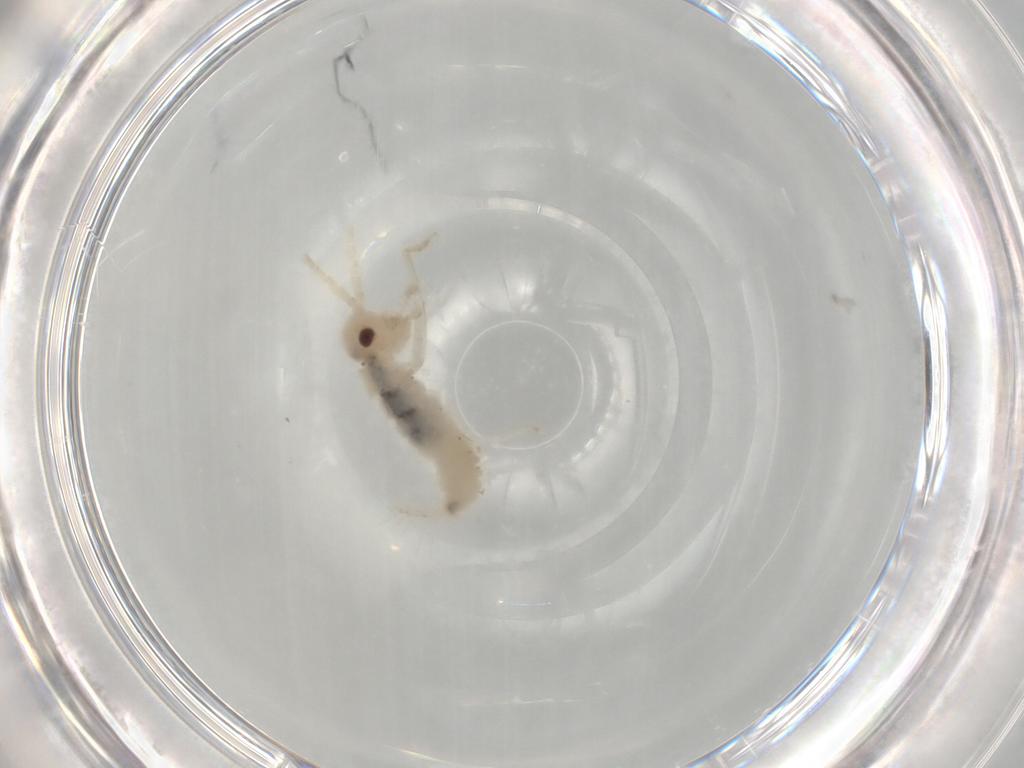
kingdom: Animalia
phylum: Arthropoda
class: Insecta
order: Orthoptera
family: Trigonidiidae
